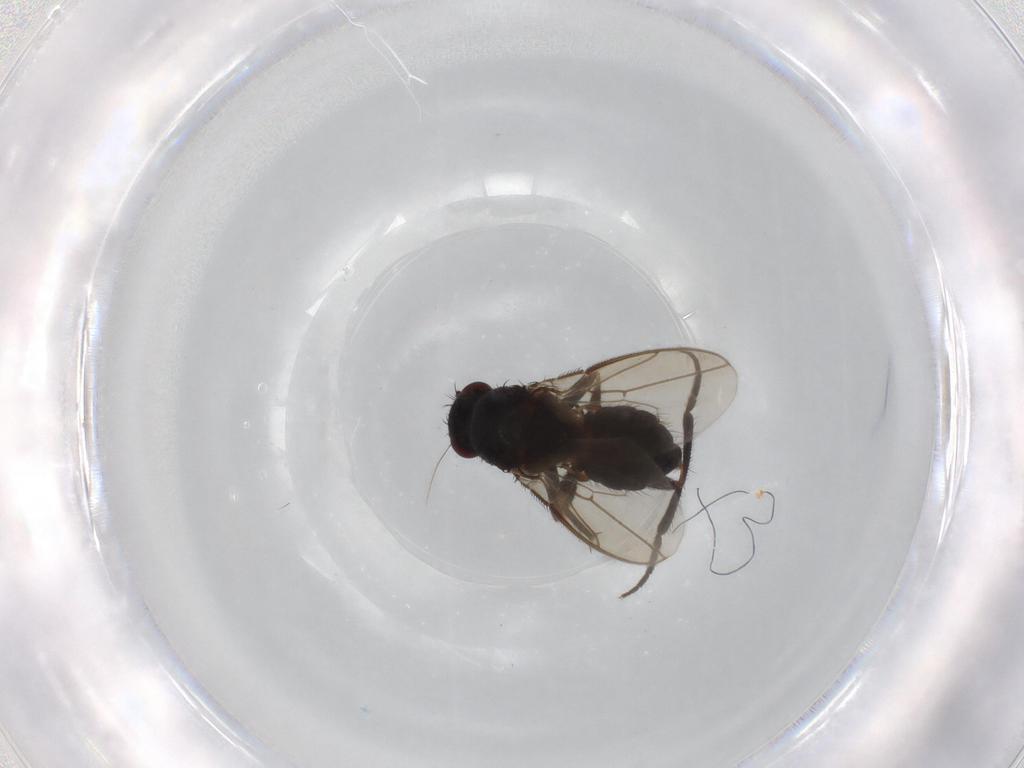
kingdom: Animalia
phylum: Arthropoda
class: Insecta
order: Diptera
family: Sphaeroceridae
